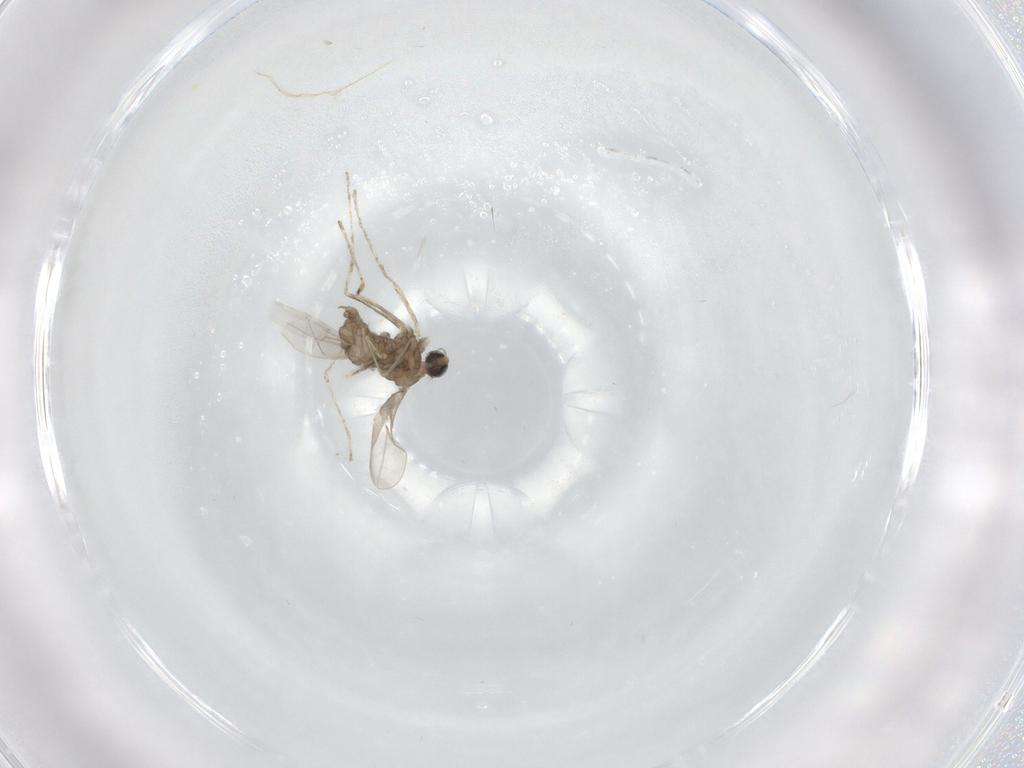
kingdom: Animalia
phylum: Arthropoda
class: Insecta
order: Diptera
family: Cecidomyiidae
